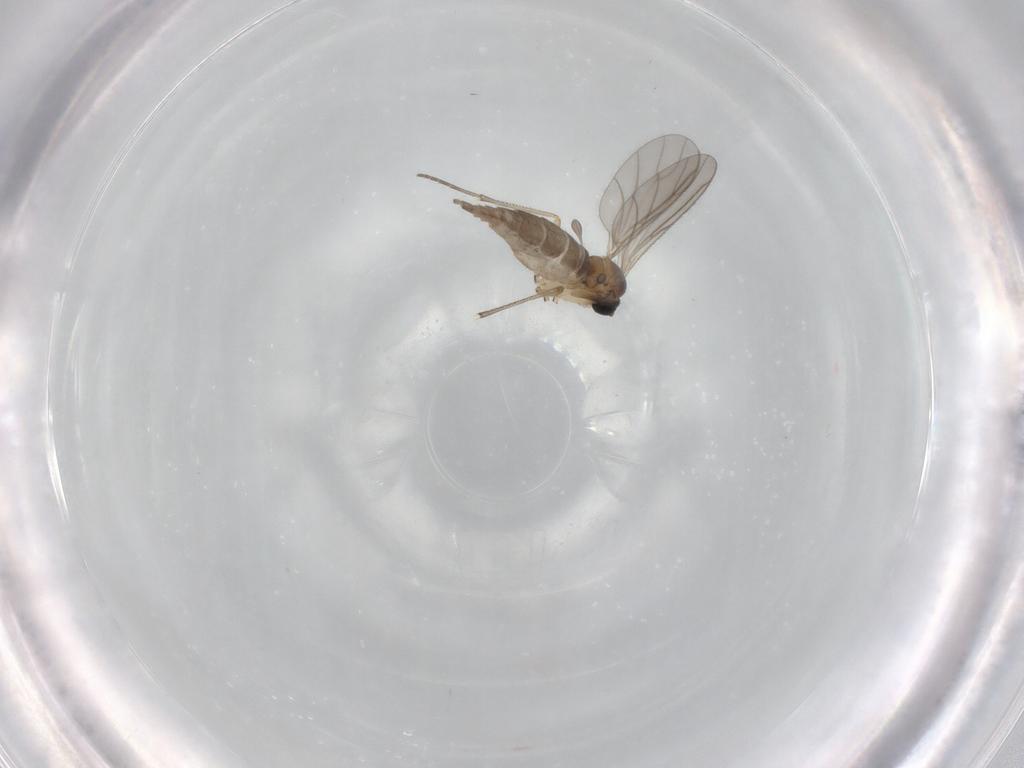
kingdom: Animalia
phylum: Arthropoda
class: Insecta
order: Diptera
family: Sciaridae
